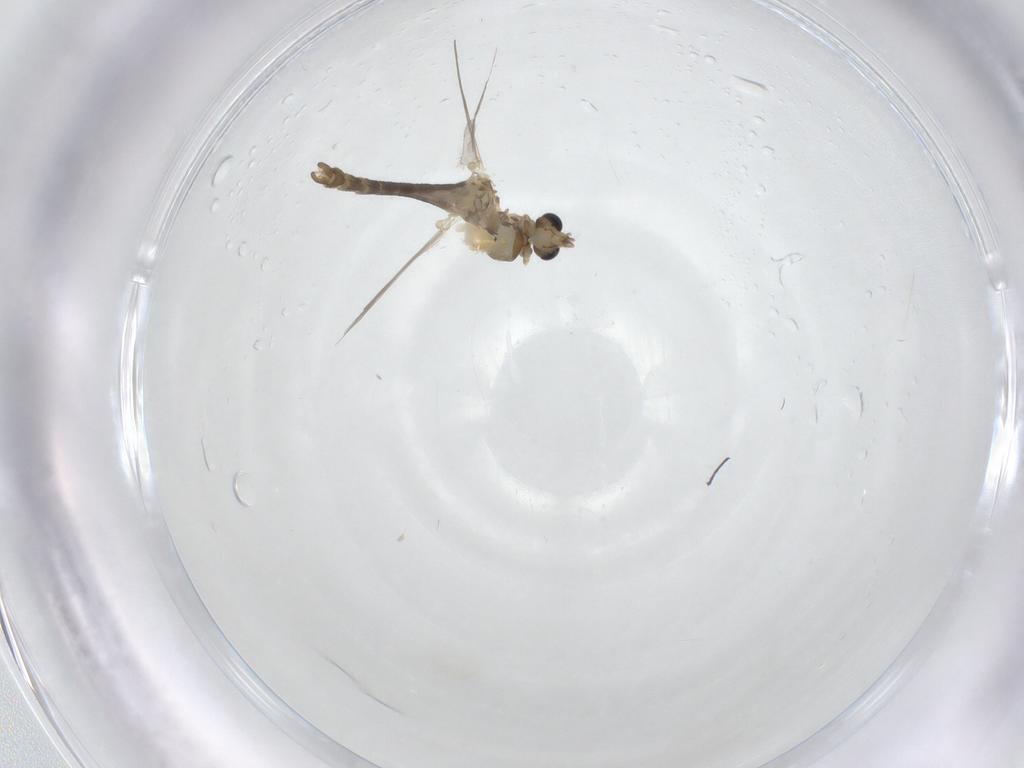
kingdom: Animalia
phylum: Arthropoda
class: Insecta
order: Diptera
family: Chironomidae
